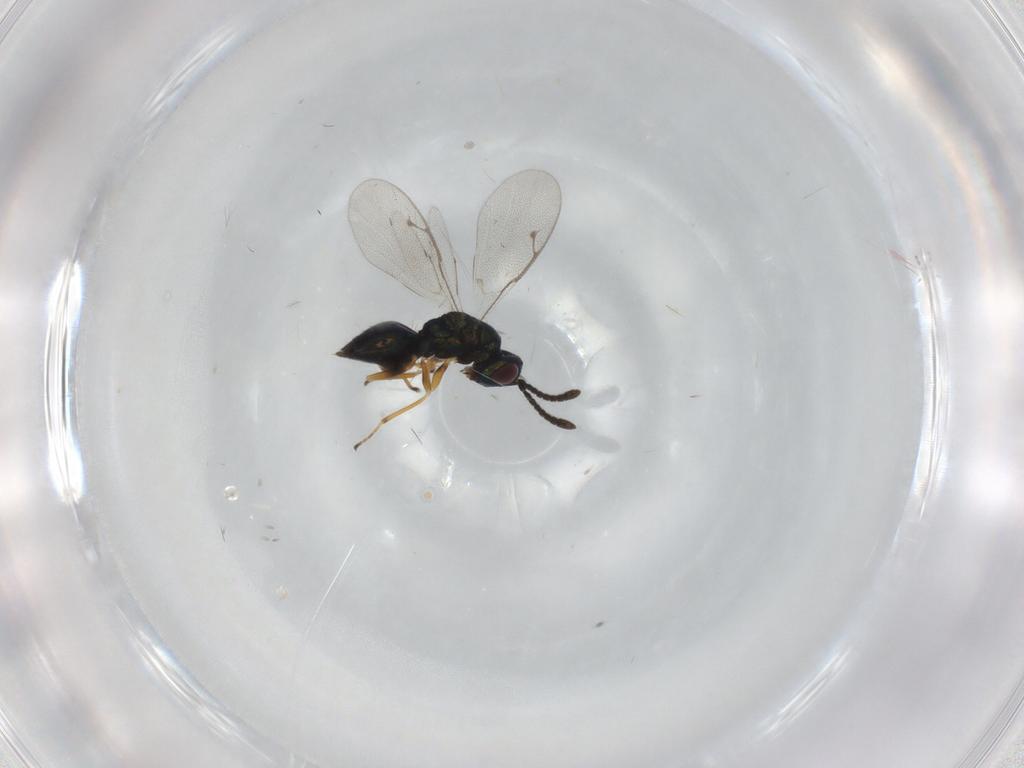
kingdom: Animalia
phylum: Arthropoda
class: Insecta
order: Hymenoptera
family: Pteromalidae
